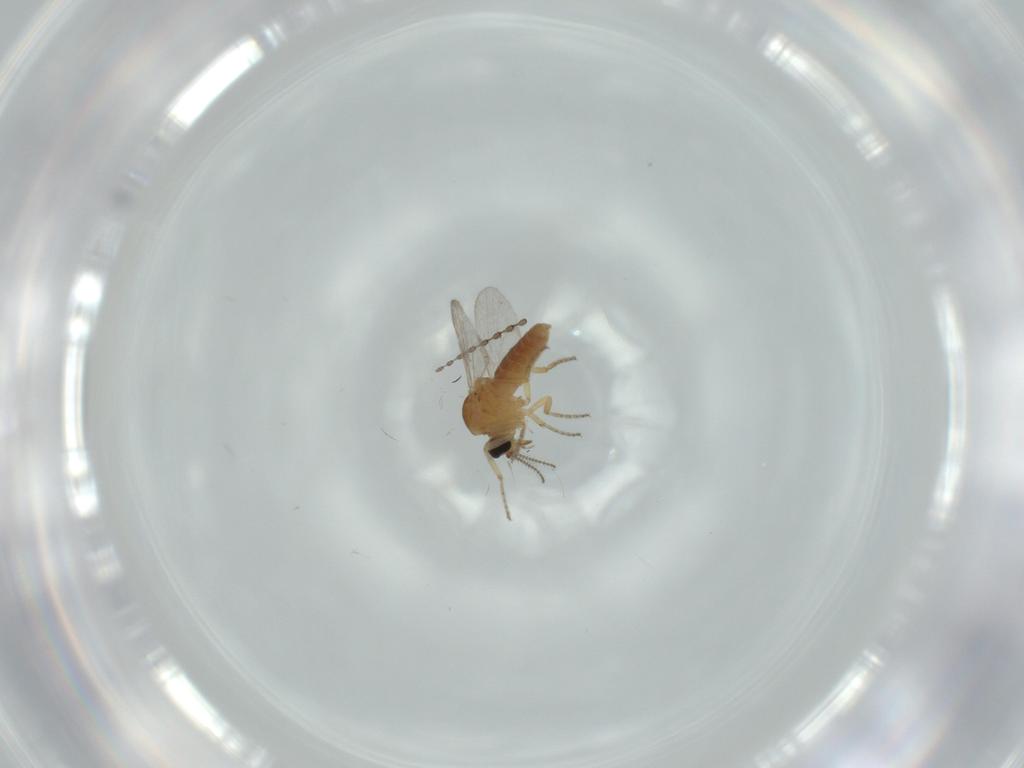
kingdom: Animalia
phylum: Arthropoda
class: Insecta
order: Diptera
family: Ceratopogonidae
